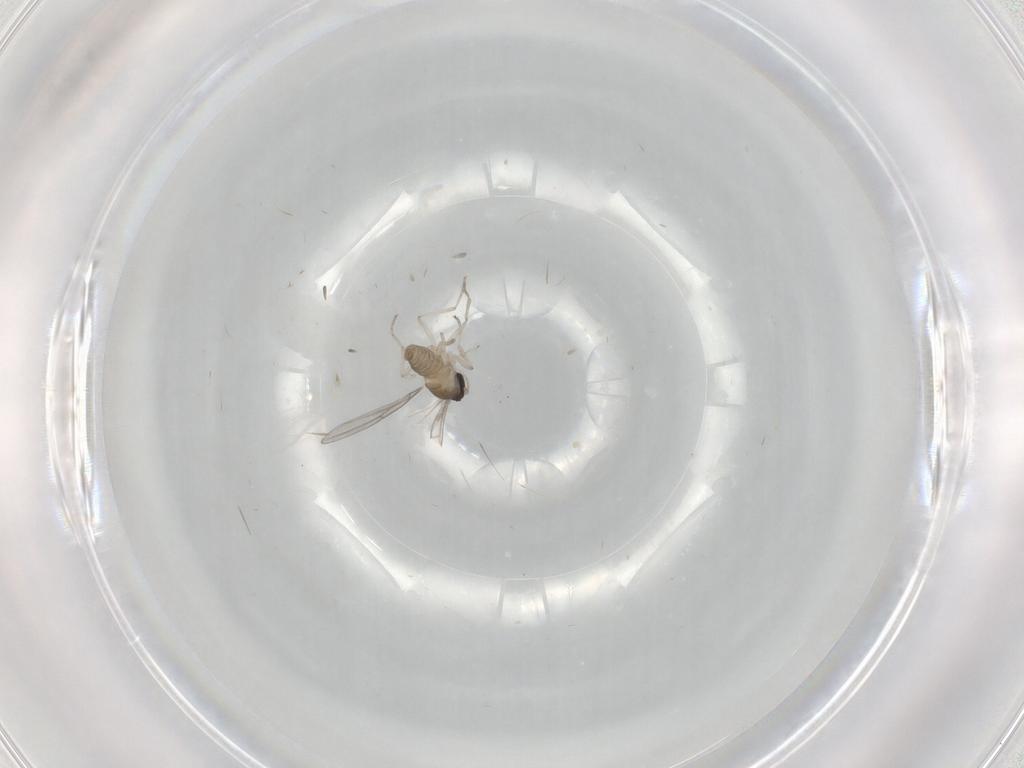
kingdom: Animalia
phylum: Arthropoda
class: Insecta
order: Diptera
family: Cecidomyiidae
